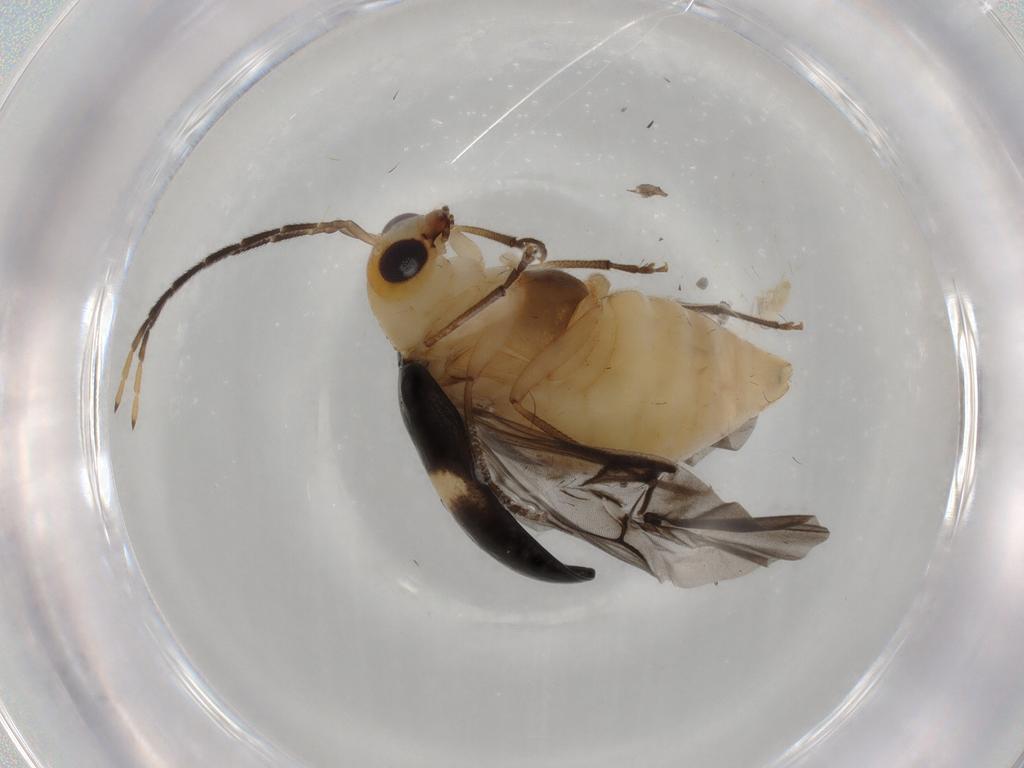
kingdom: Animalia
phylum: Arthropoda
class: Insecta
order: Coleoptera
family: Chrysomelidae
